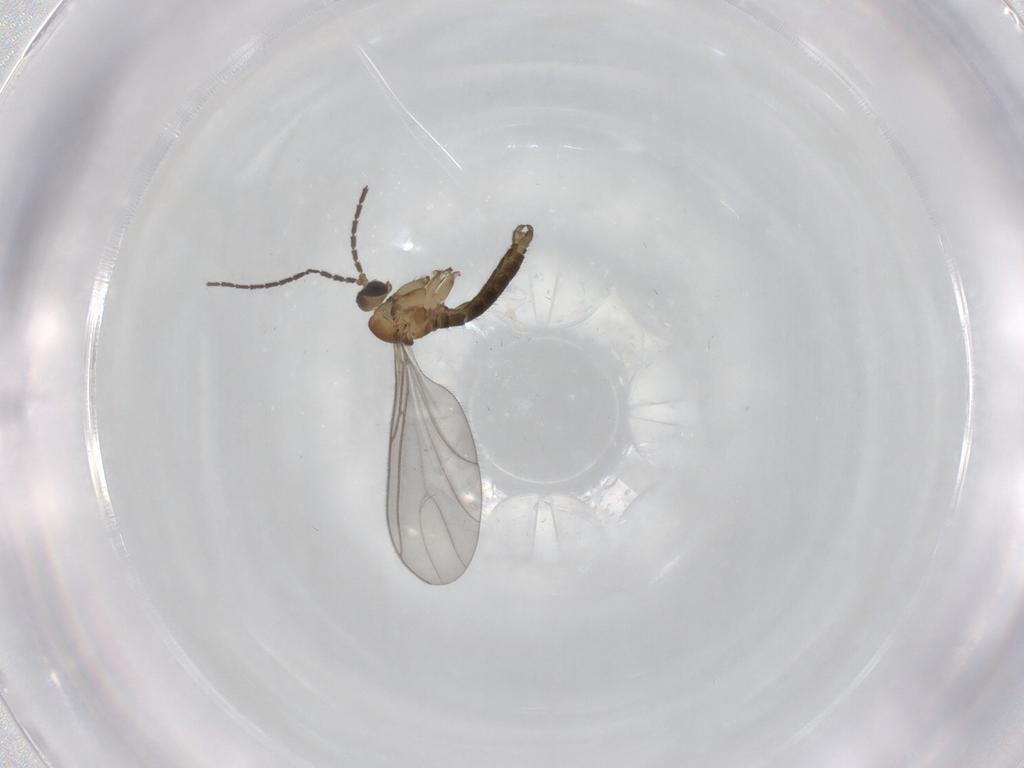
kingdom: Animalia
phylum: Arthropoda
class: Insecta
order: Diptera
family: Sciaridae
